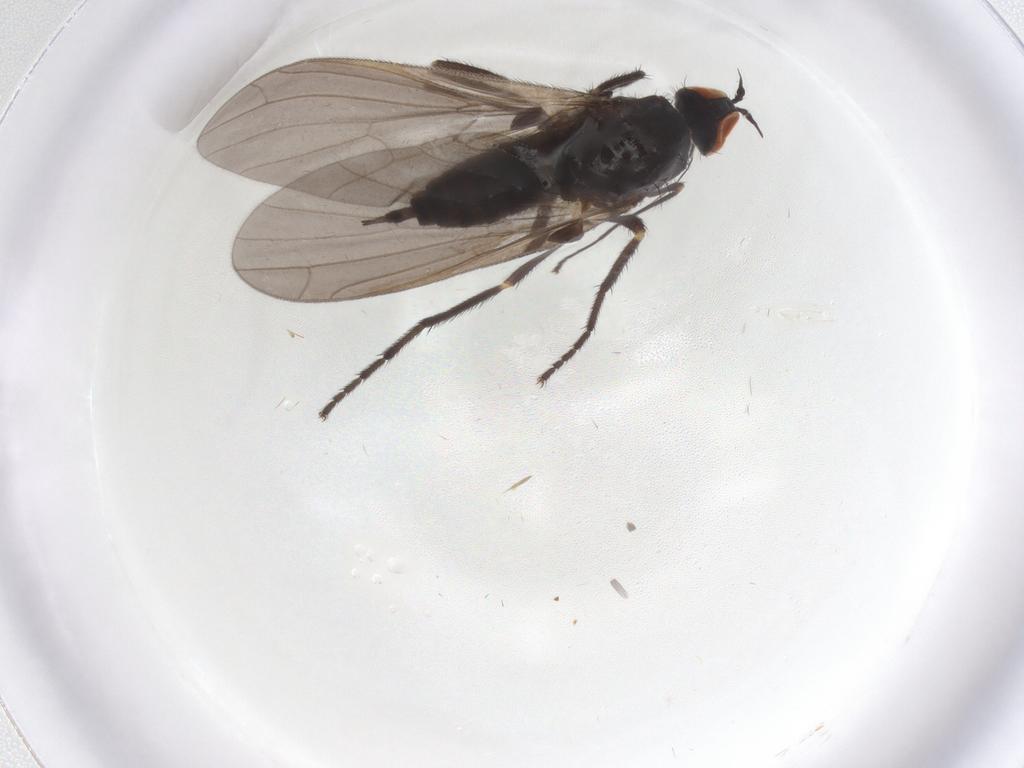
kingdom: Animalia
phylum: Arthropoda
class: Insecta
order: Diptera
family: Empididae
